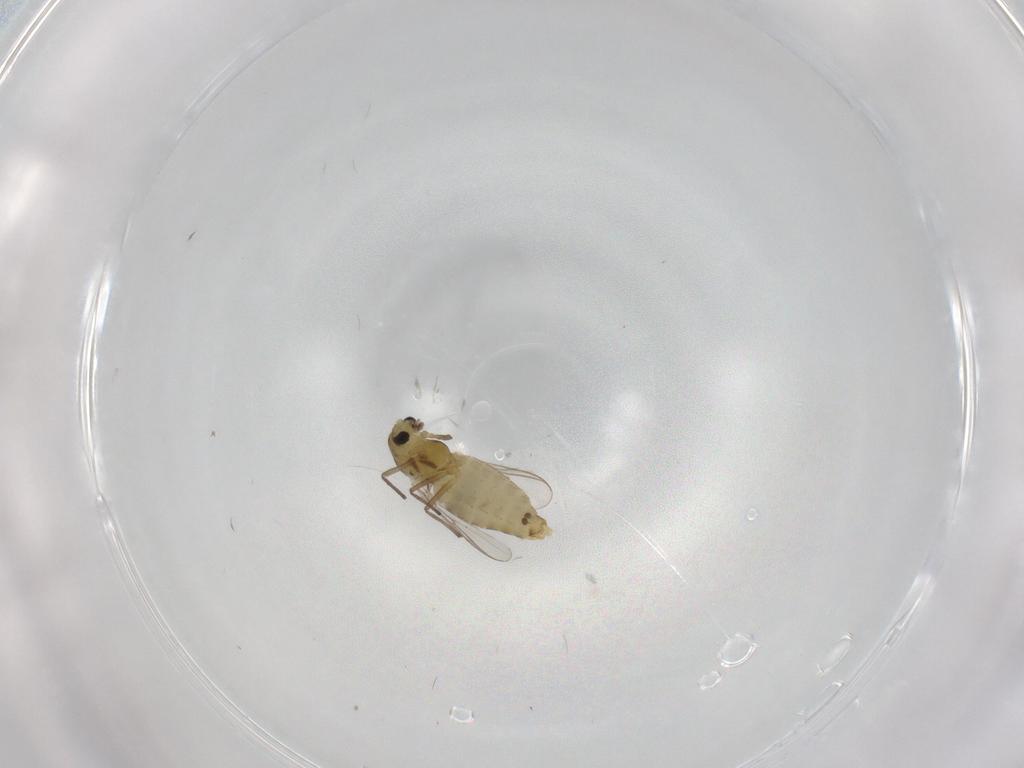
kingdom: Animalia
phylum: Arthropoda
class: Insecta
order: Diptera
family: Chironomidae
